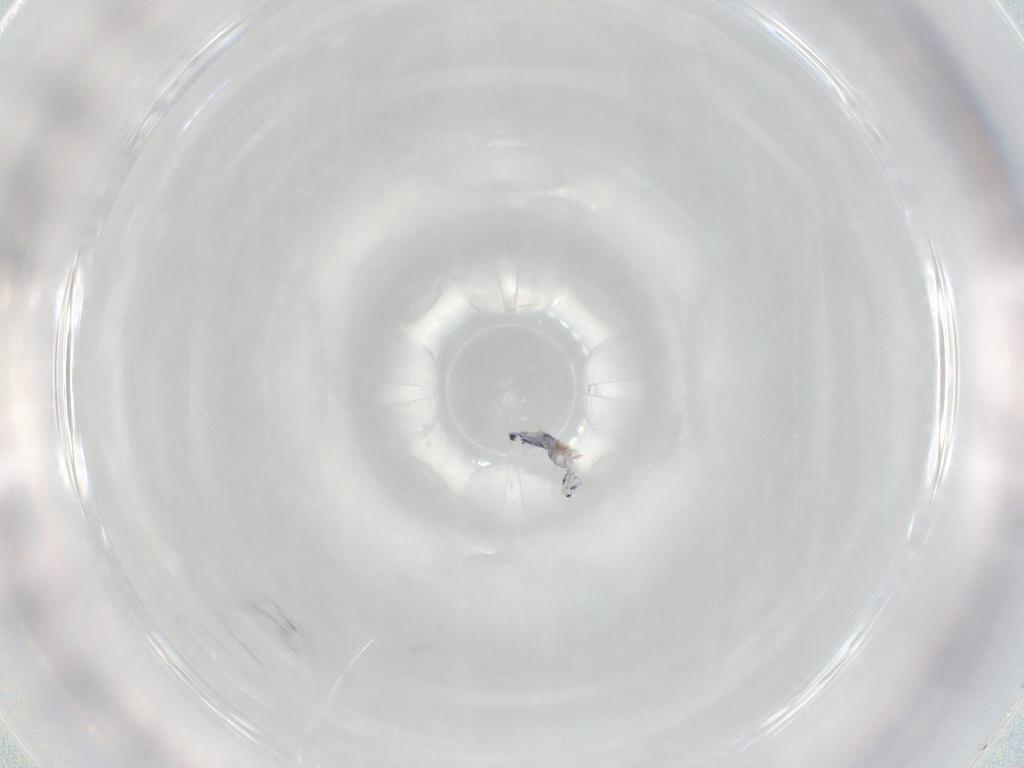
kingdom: Animalia
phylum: Arthropoda
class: Collembola
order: Entomobryomorpha
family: Entomobryidae
